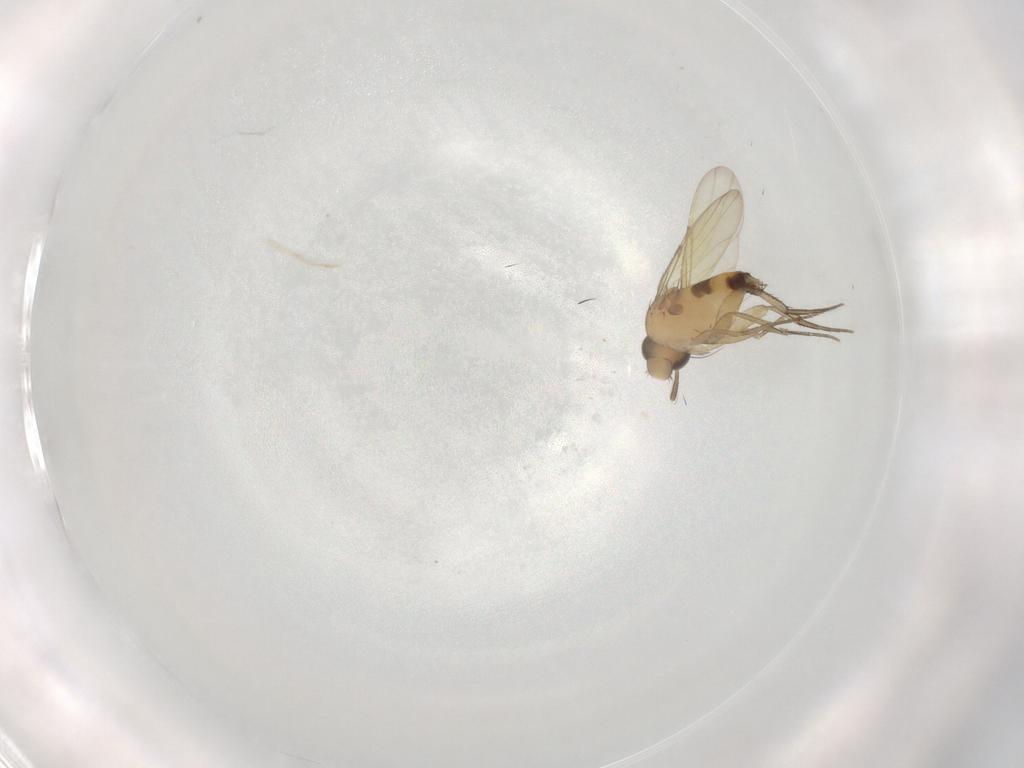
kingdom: Animalia
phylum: Arthropoda
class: Insecta
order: Diptera
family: Phoridae
